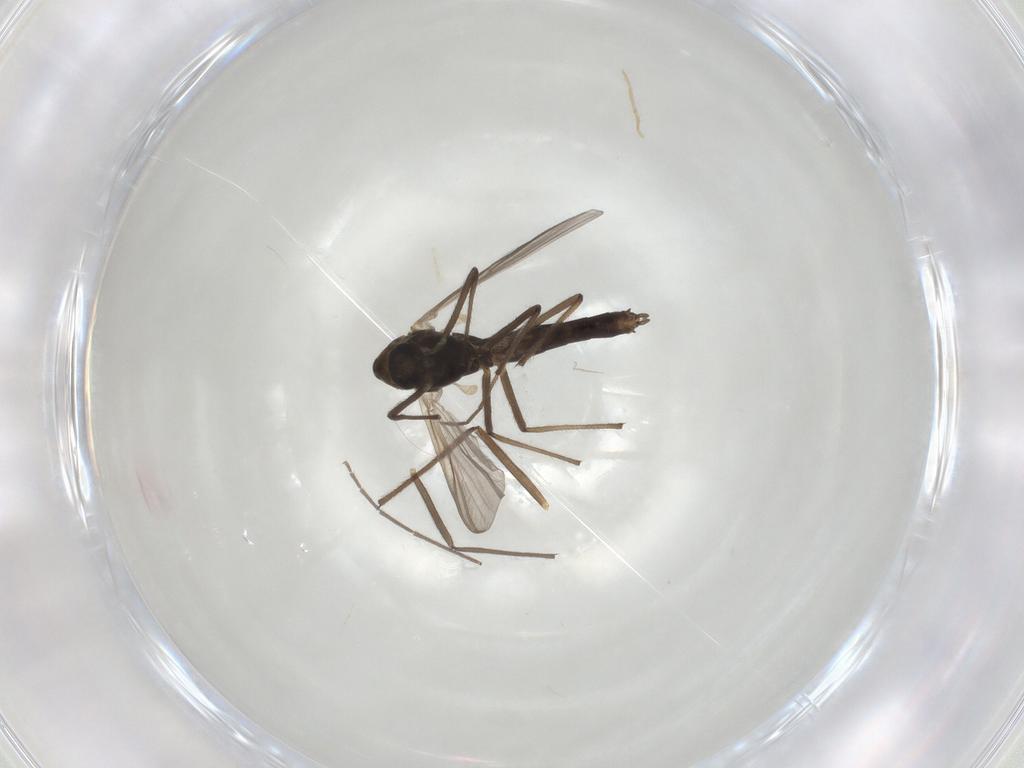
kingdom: Animalia
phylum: Arthropoda
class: Insecta
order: Diptera
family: Chironomidae
